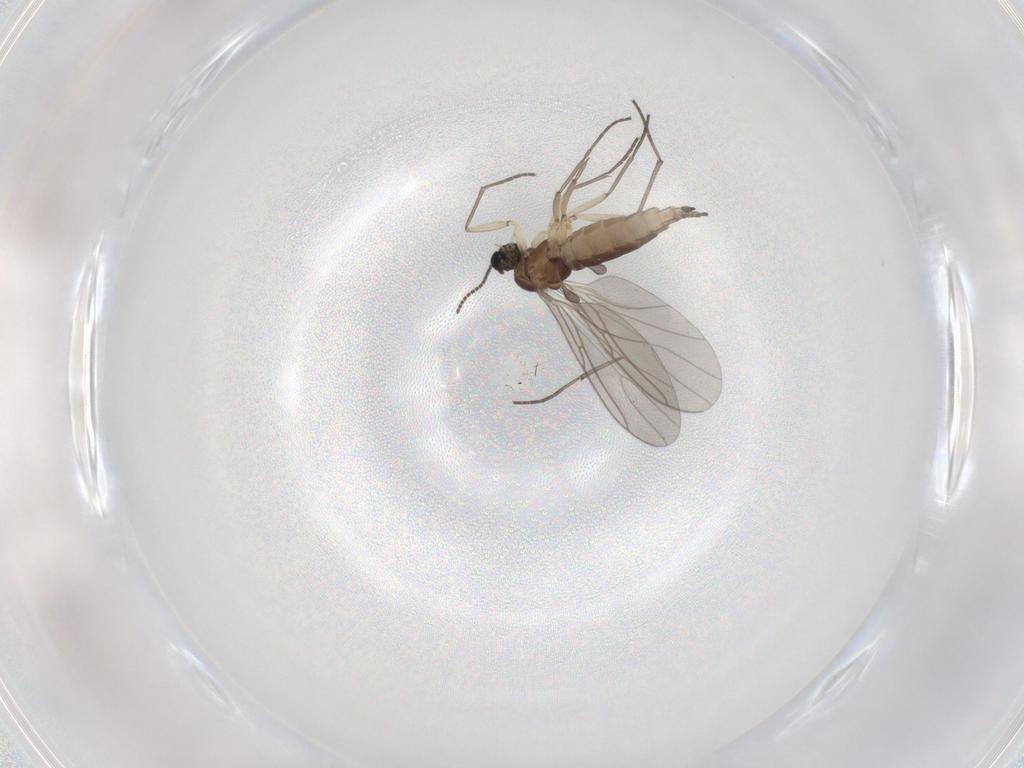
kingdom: Animalia
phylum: Arthropoda
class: Insecta
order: Diptera
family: Sciaridae
